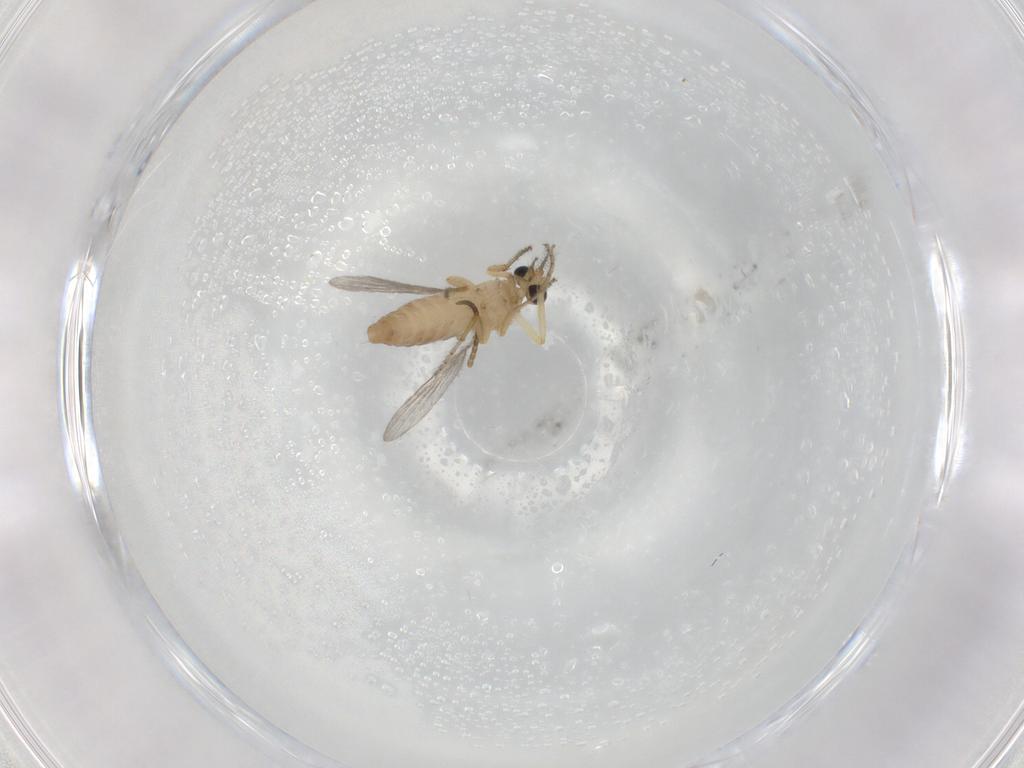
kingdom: Animalia
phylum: Arthropoda
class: Insecta
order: Diptera
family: Ceratopogonidae
